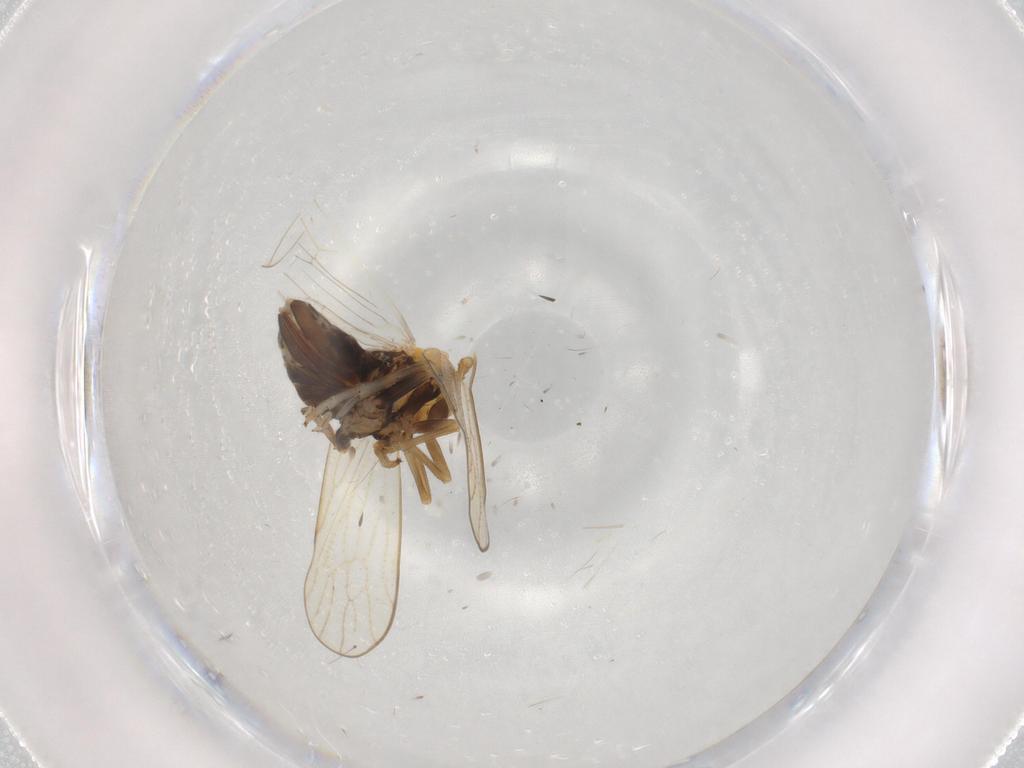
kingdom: Animalia
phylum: Arthropoda
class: Insecta
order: Hemiptera
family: Delphacidae
